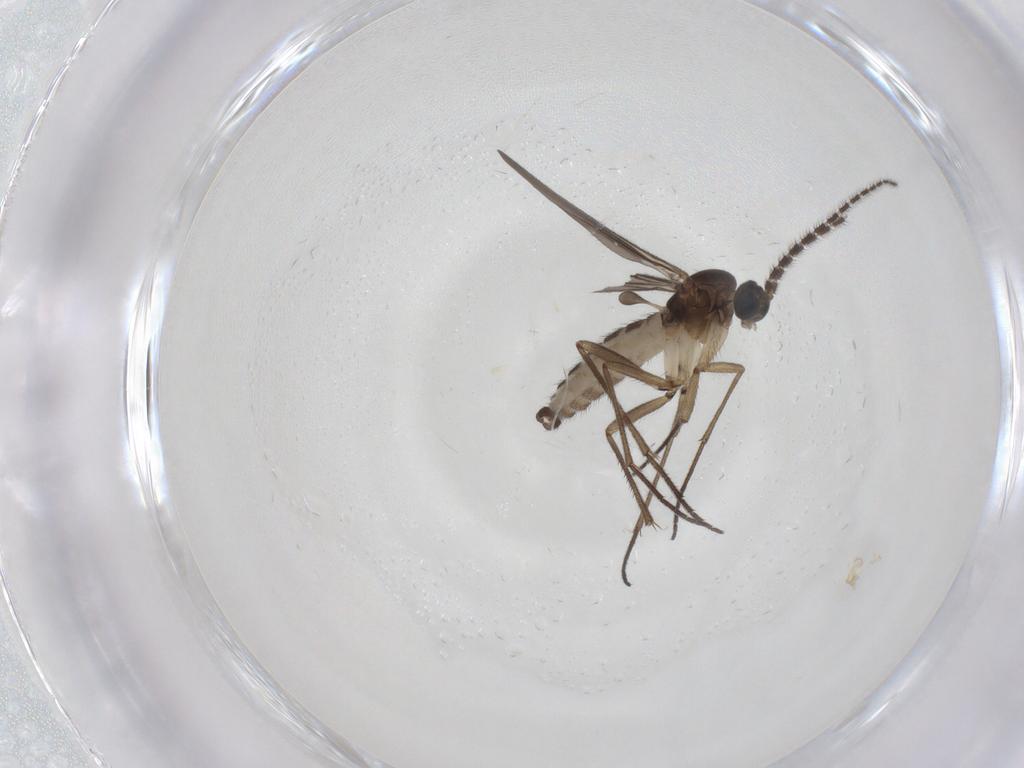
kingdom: Animalia
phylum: Arthropoda
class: Insecta
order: Diptera
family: Sciaridae
